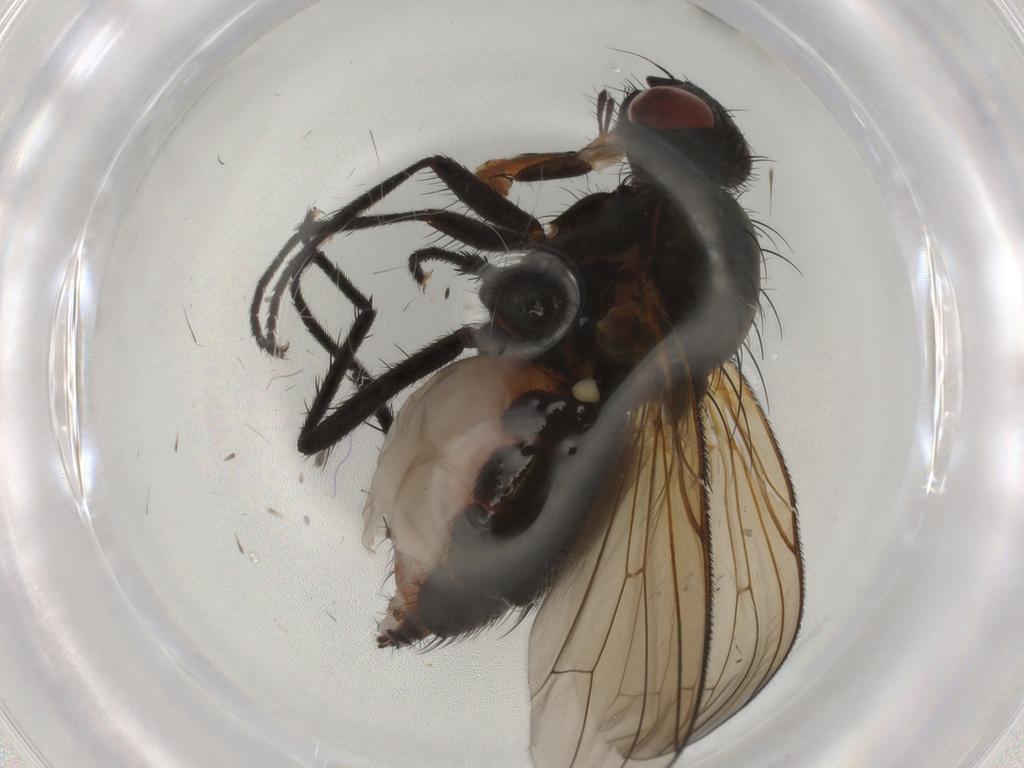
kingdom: Animalia
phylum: Arthropoda
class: Insecta
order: Diptera
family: Anthomyiidae
